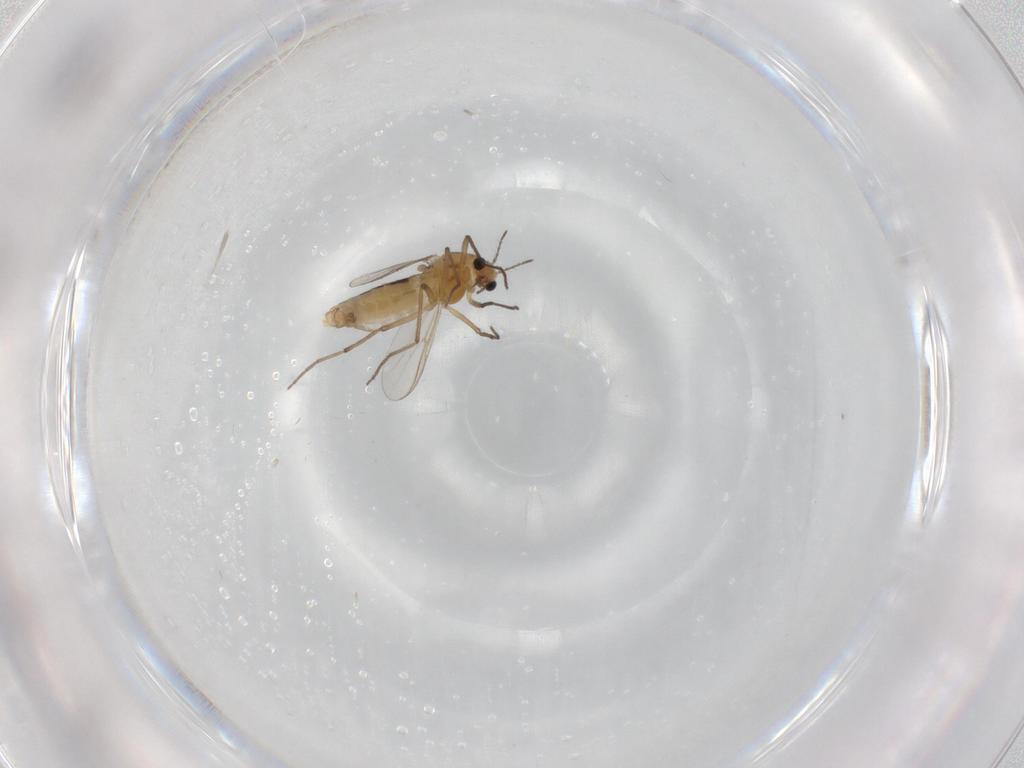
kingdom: Animalia
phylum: Arthropoda
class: Insecta
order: Diptera
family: Chironomidae
